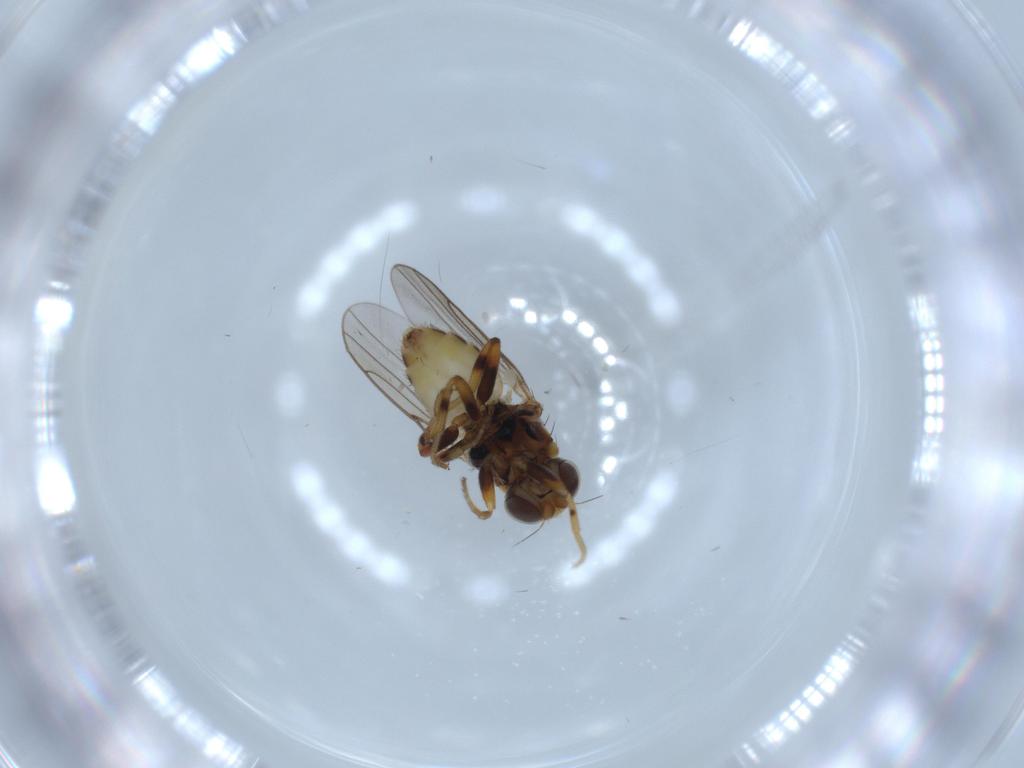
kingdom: Animalia
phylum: Arthropoda
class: Insecta
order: Diptera
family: Chloropidae
